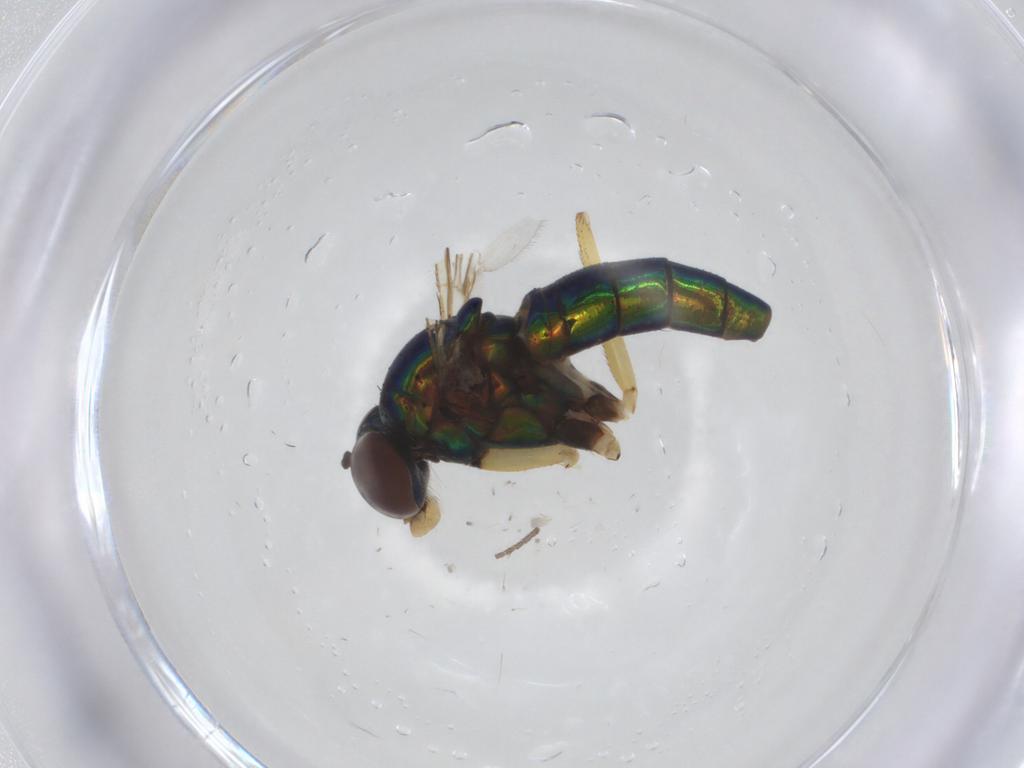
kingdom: Animalia
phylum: Arthropoda
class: Insecta
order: Diptera
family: Dolichopodidae
